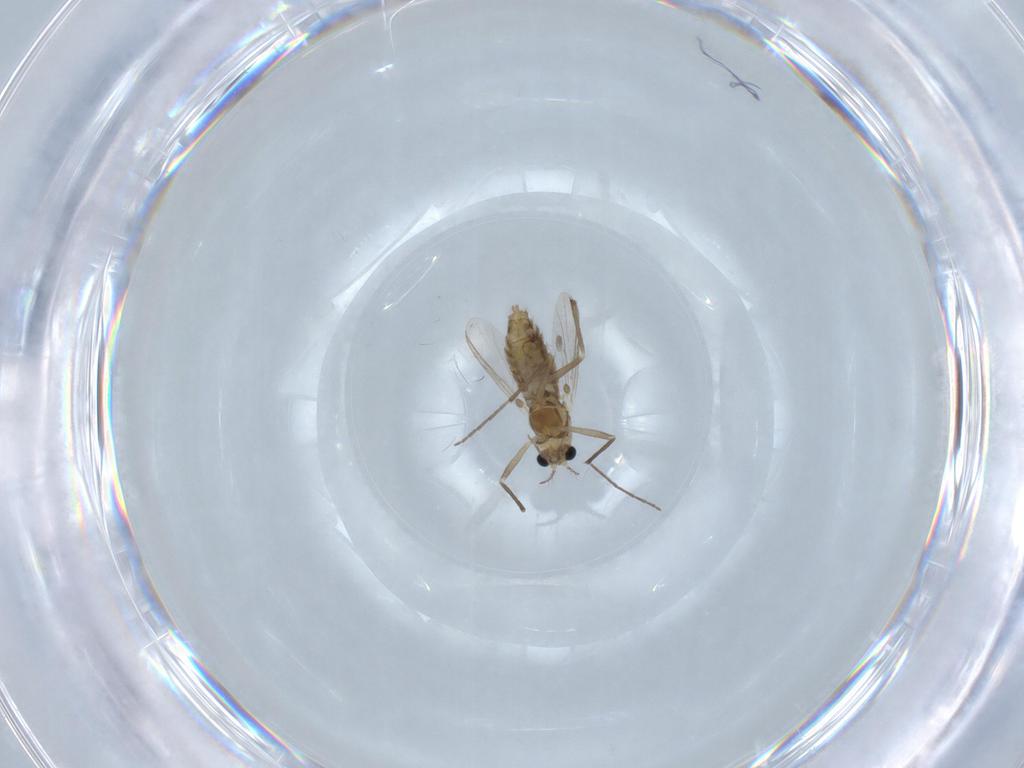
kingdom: Animalia
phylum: Arthropoda
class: Insecta
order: Diptera
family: Chironomidae
